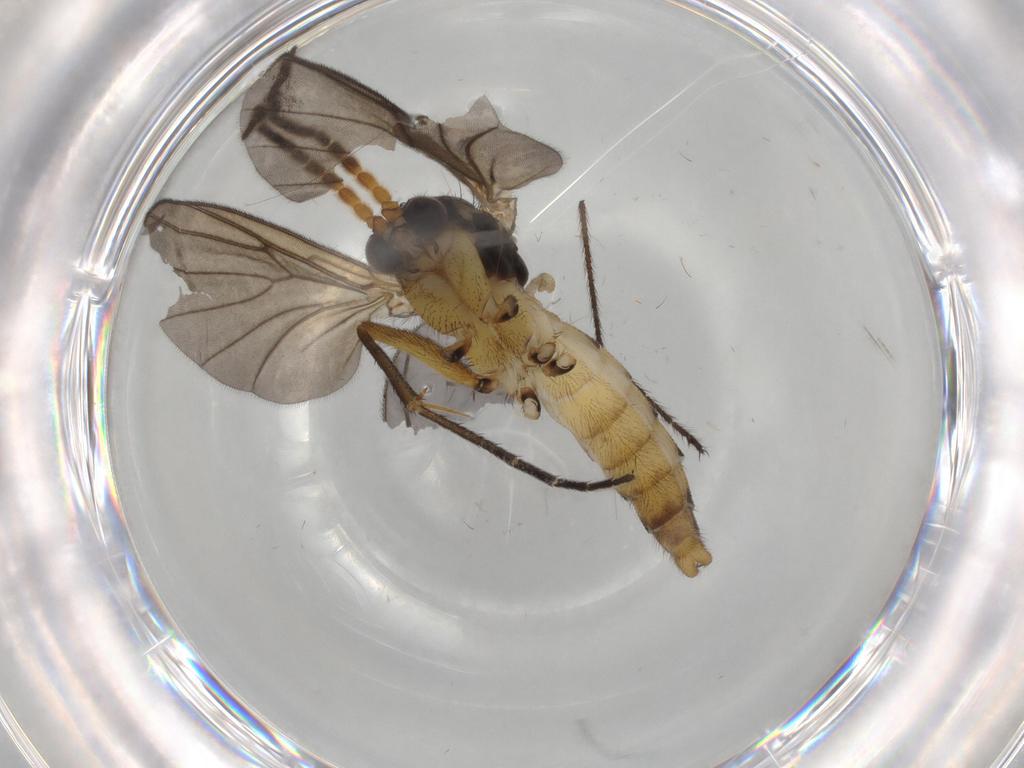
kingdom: Animalia
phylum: Arthropoda
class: Insecta
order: Diptera
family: Mycetophilidae
